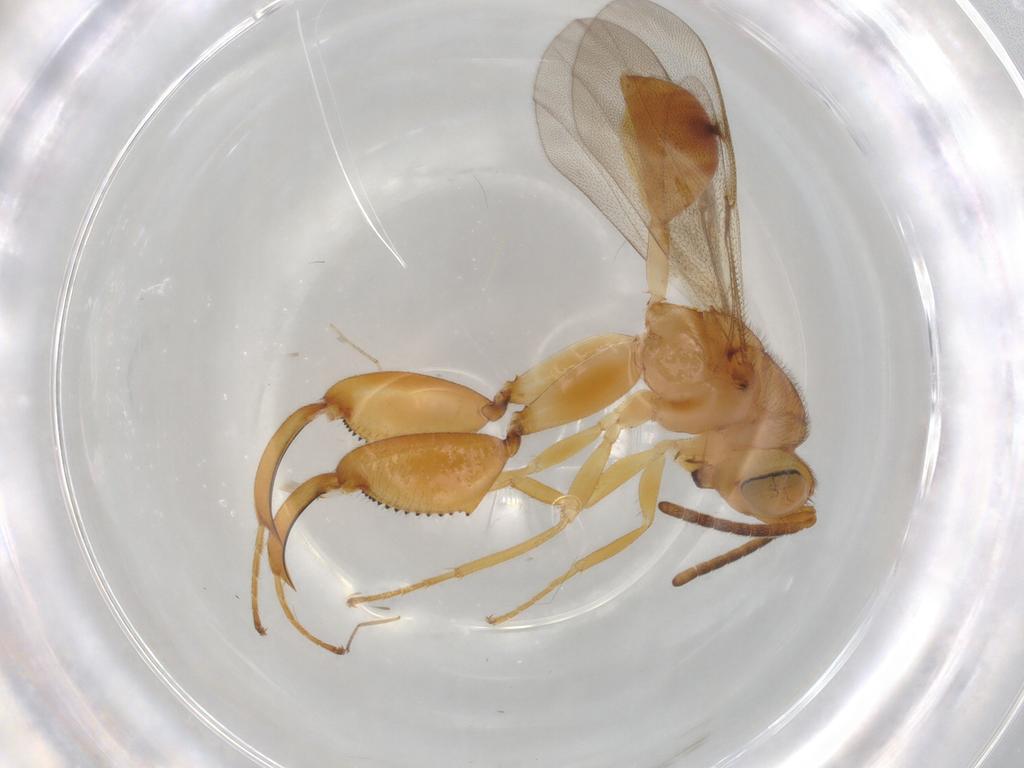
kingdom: Animalia
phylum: Arthropoda
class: Insecta
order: Hymenoptera
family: Chalcididae
